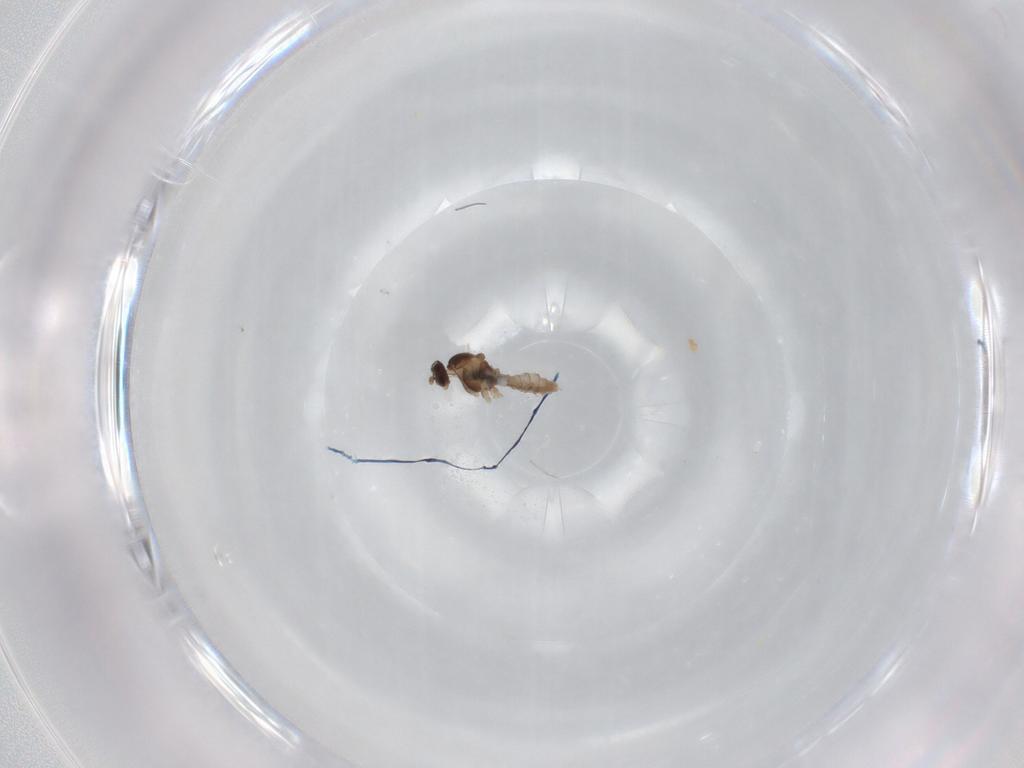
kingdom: Animalia
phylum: Arthropoda
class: Insecta
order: Diptera
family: Cecidomyiidae
